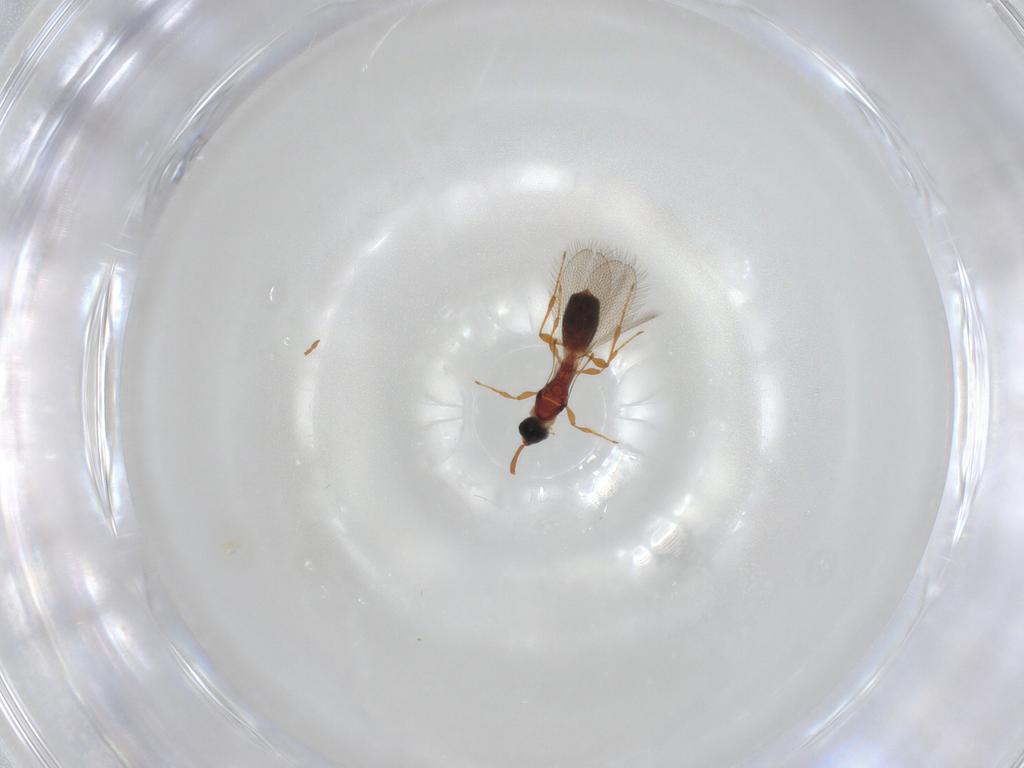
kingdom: Animalia
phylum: Arthropoda
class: Insecta
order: Hymenoptera
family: Diapriidae
